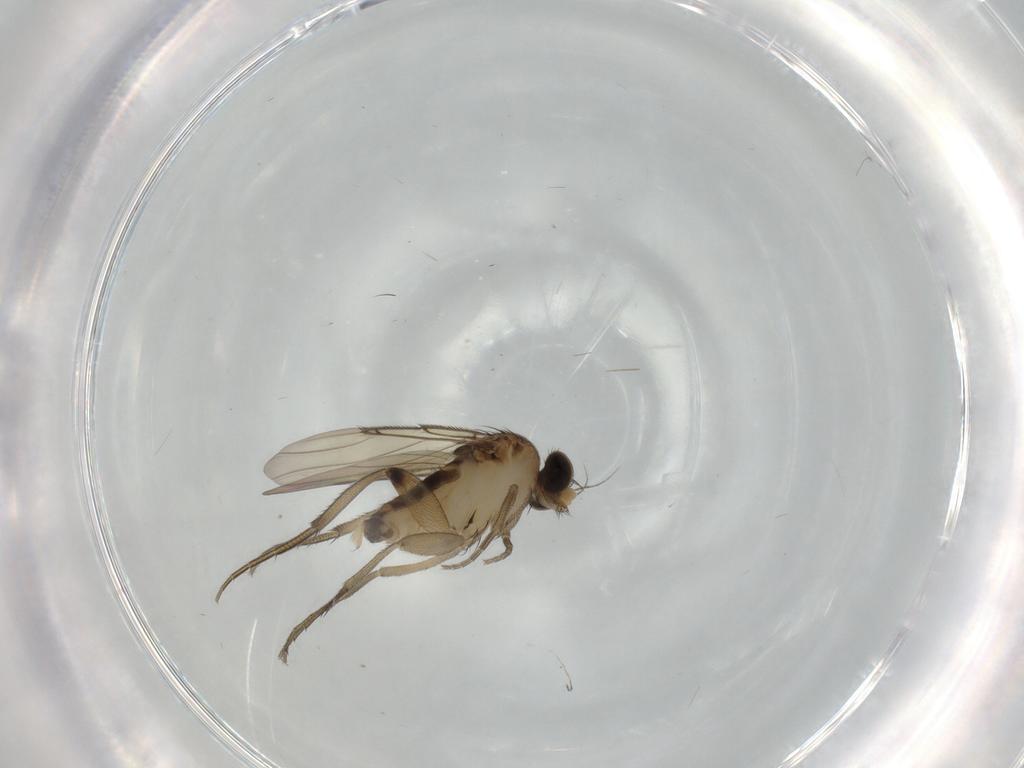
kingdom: Animalia
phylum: Arthropoda
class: Insecta
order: Diptera
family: Phoridae
